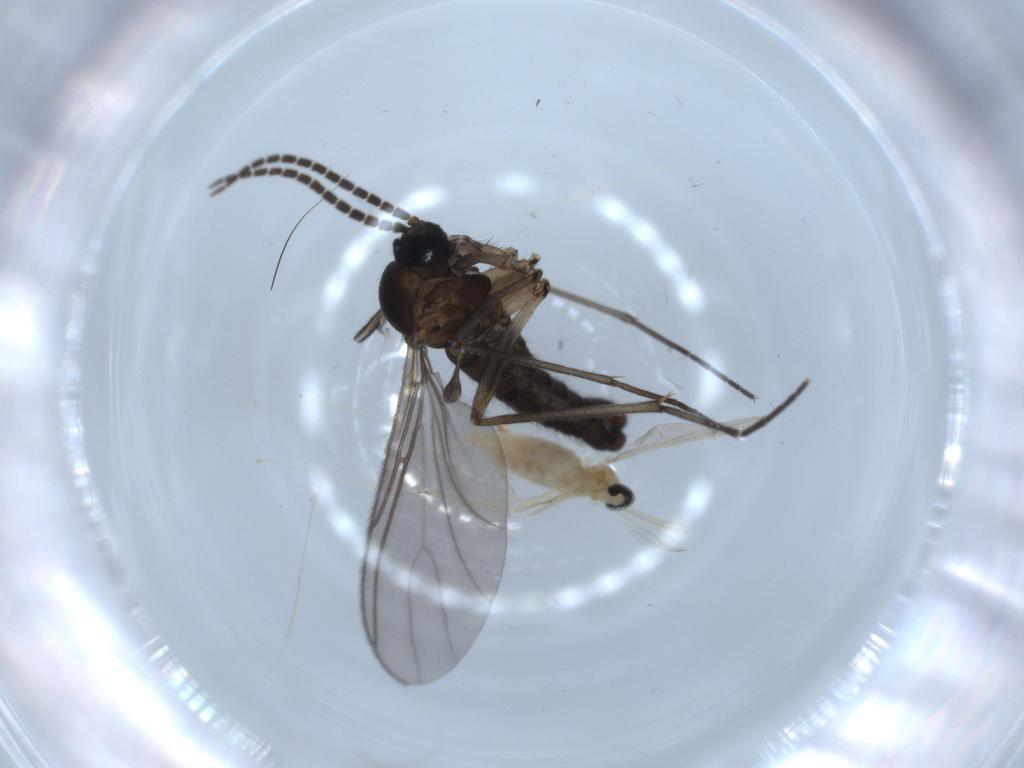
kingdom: Animalia
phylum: Arthropoda
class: Insecta
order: Diptera
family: Sciaridae
